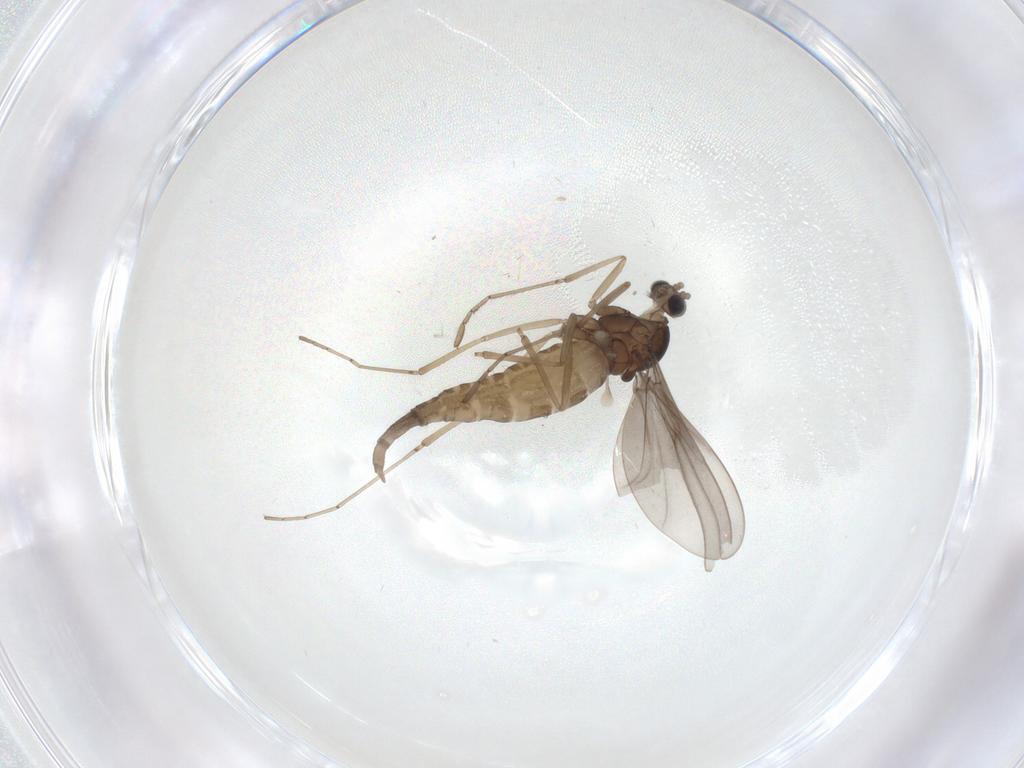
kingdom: Animalia
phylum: Arthropoda
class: Insecta
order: Diptera
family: Cecidomyiidae
